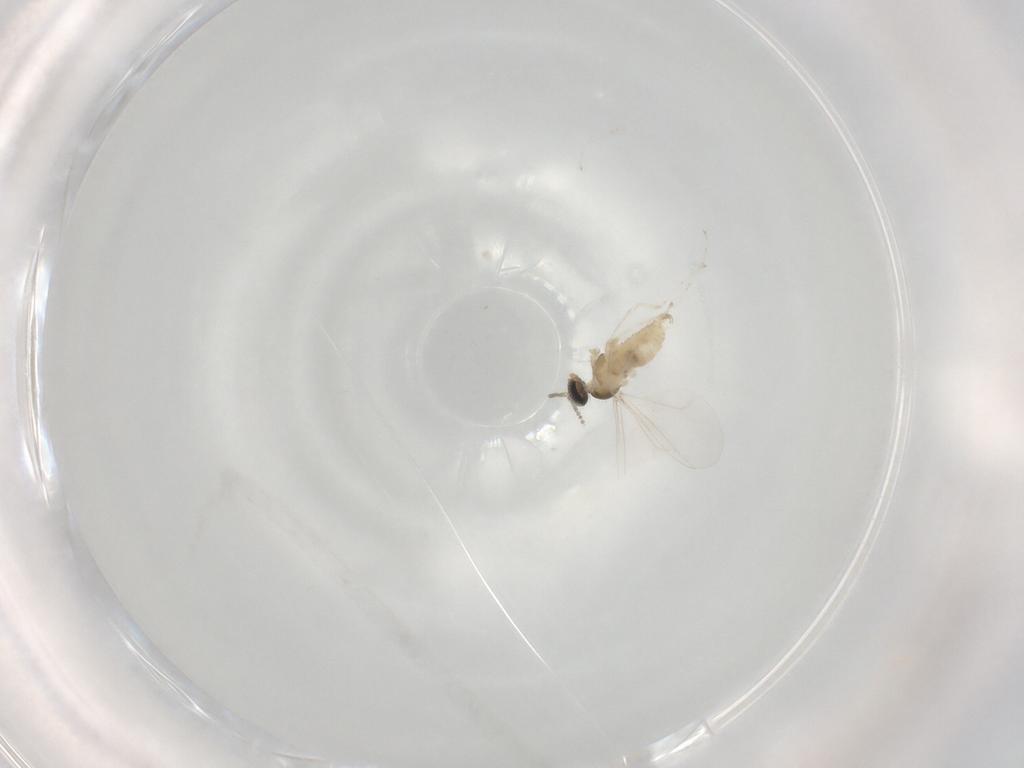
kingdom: Animalia
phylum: Arthropoda
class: Insecta
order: Diptera
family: Cecidomyiidae
